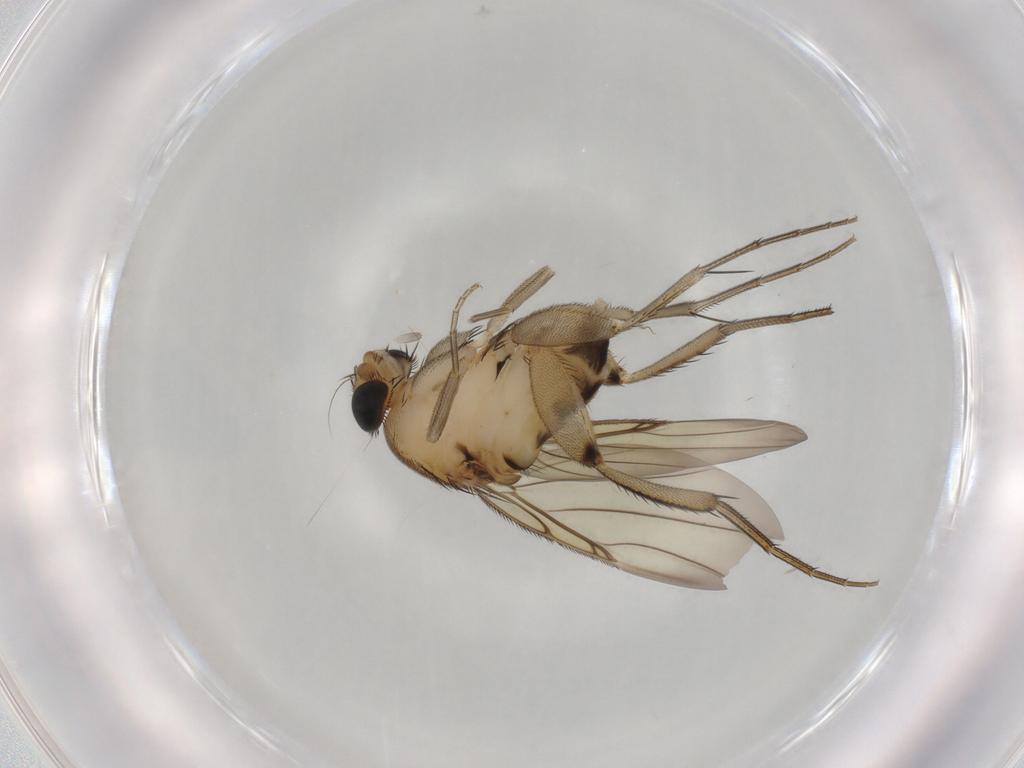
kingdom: Animalia
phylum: Arthropoda
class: Insecta
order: Diptera
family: Phoridae
